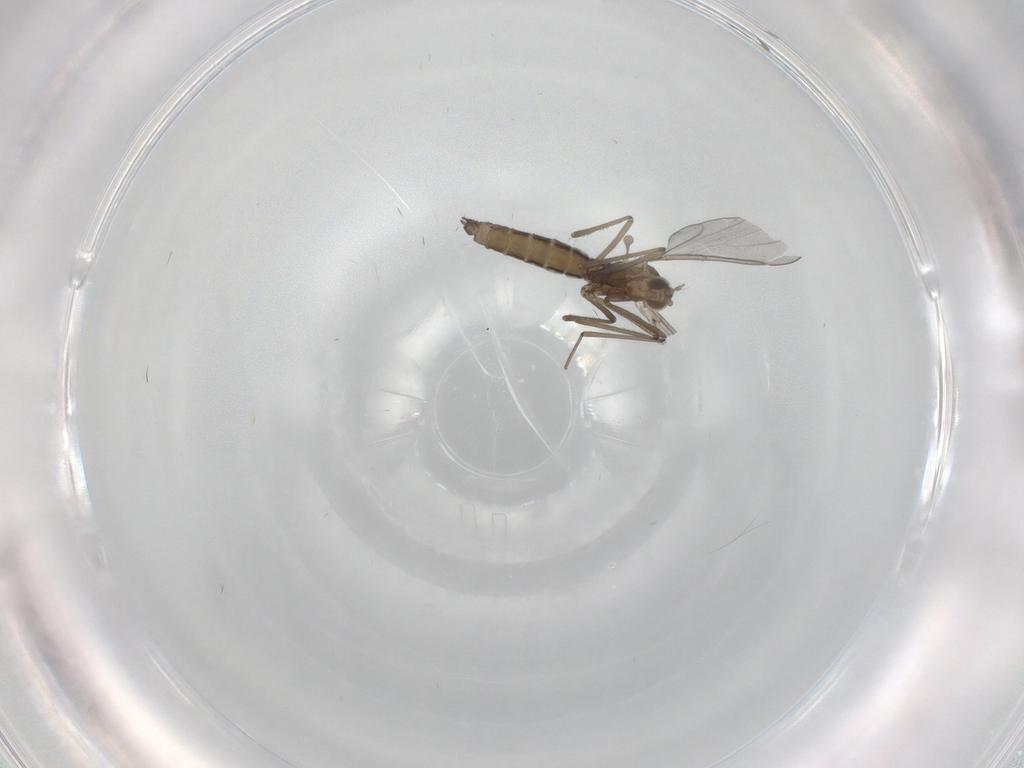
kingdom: Animalia
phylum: Arthropoda
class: Insecta
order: Diptera
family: Cecidomyiidae
